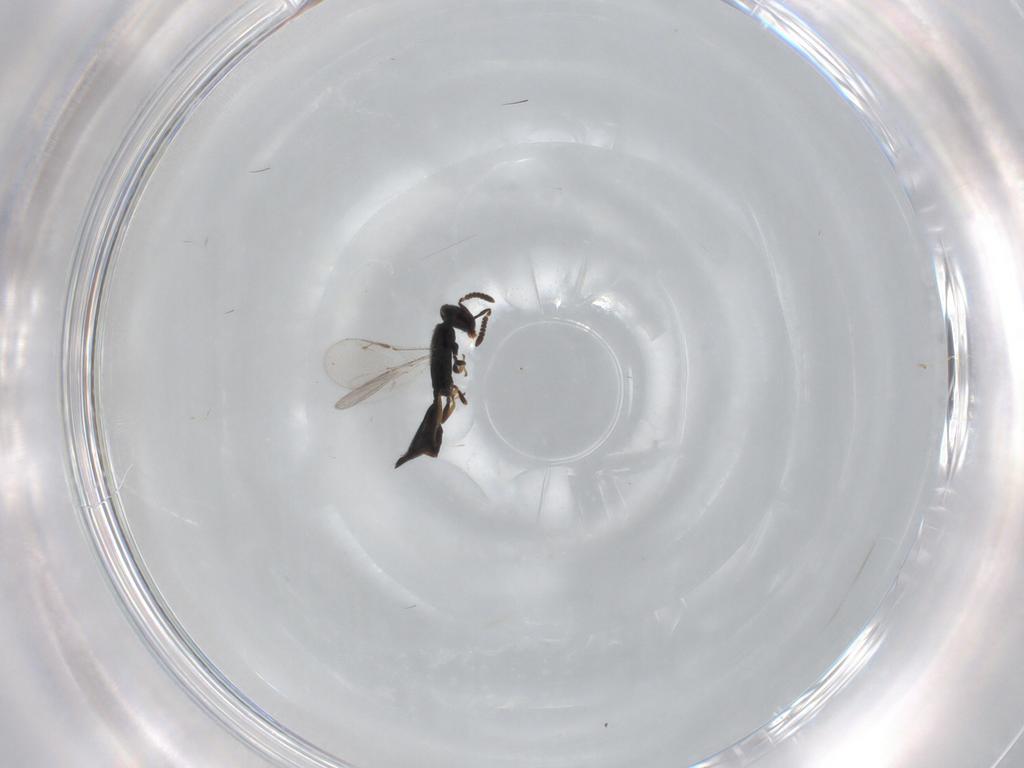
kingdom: Animalia
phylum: Arthropoda
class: Insecta
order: Hymenoptera
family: Pteromalidae
